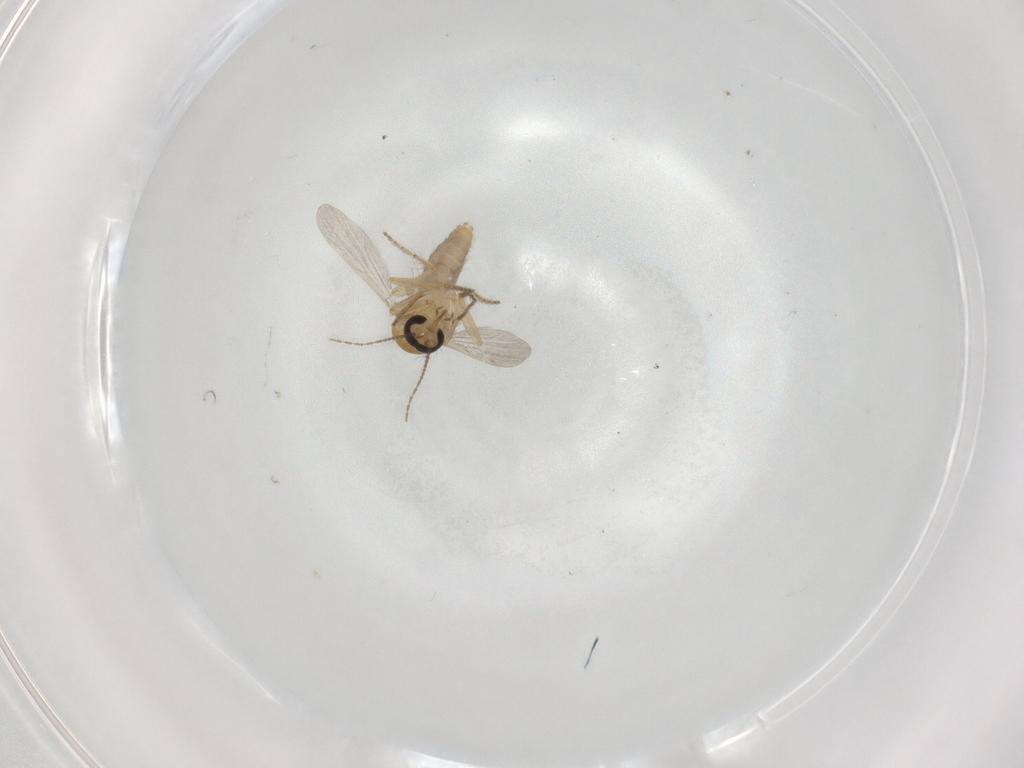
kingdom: Animalia
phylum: Arthropoda
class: Insecta
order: Diptera
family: Ceratopogonidae
